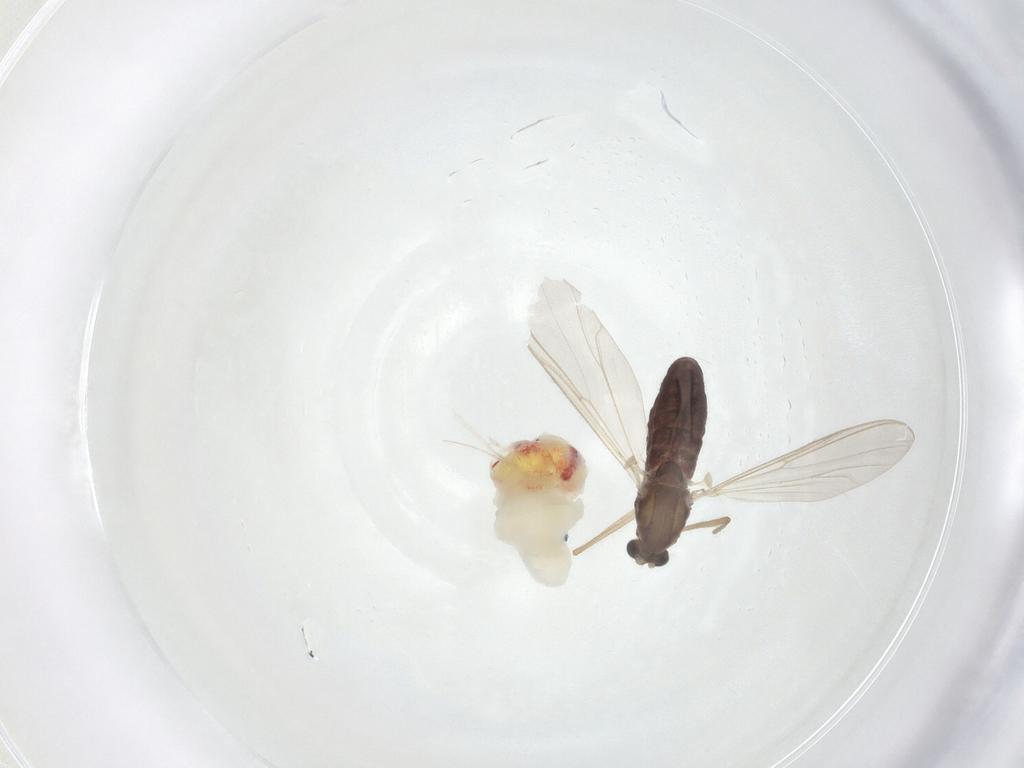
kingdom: Animalia
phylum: Arthropoda
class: Insecta
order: Diptera
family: Chironomidae
